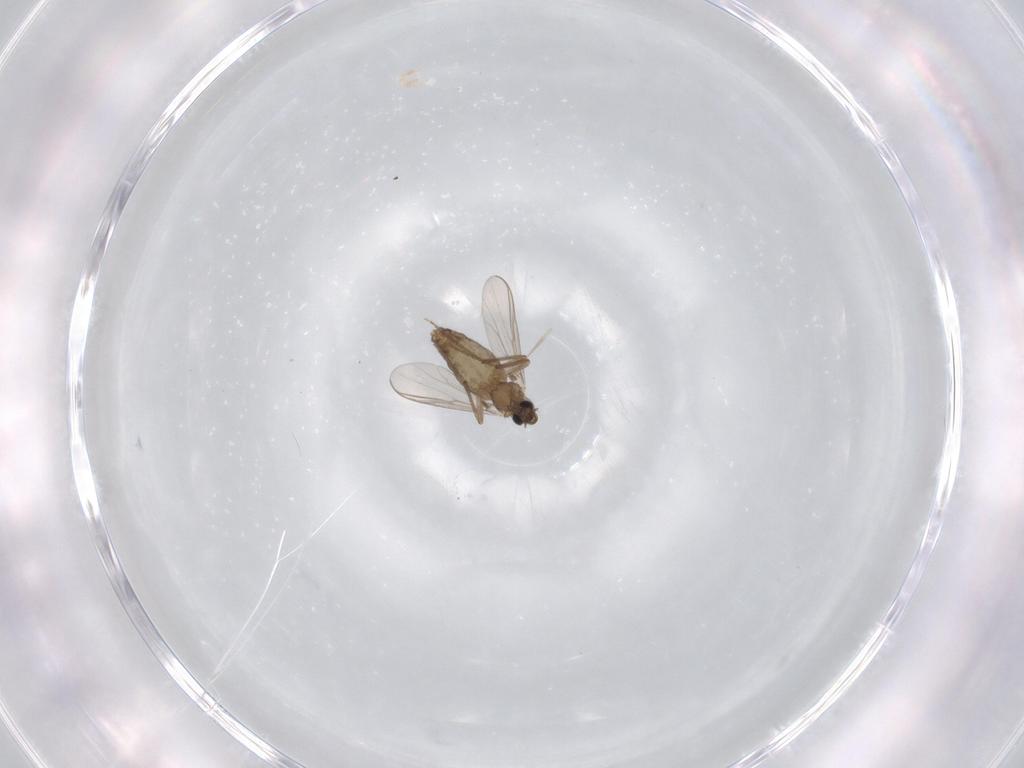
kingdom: Animalia
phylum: Arthropoda
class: Insecta
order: Diptera
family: Chironomidae
